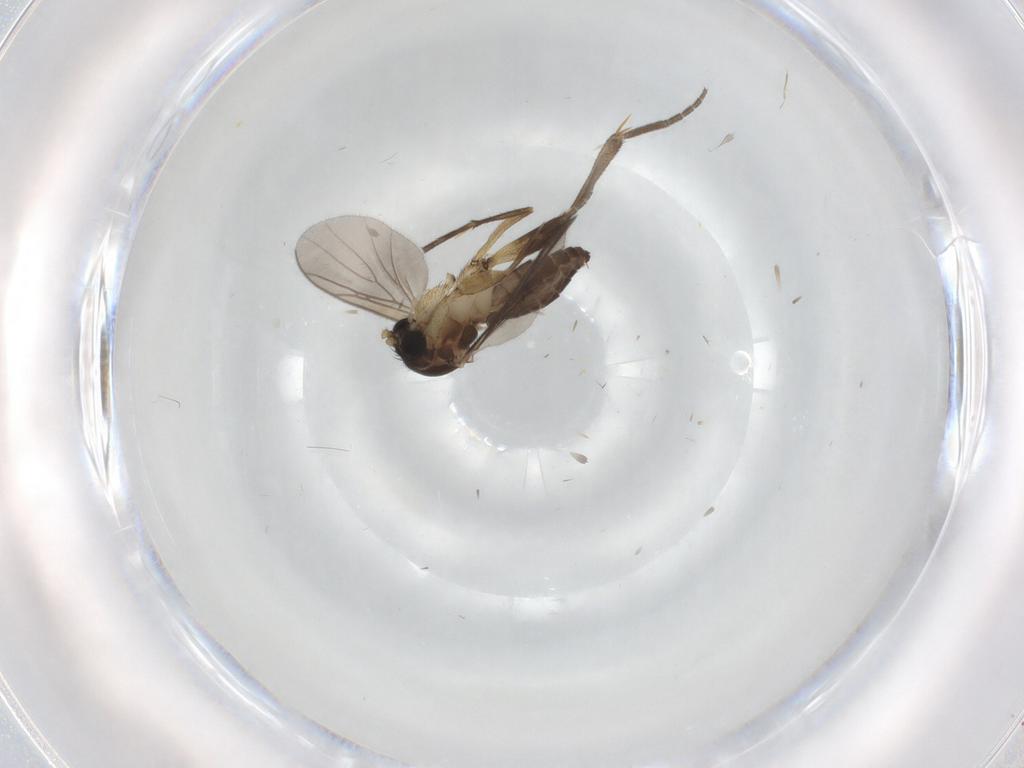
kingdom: Animalia
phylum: Arthropoda
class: Insecta
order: Diptera
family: Mycetophilidae
